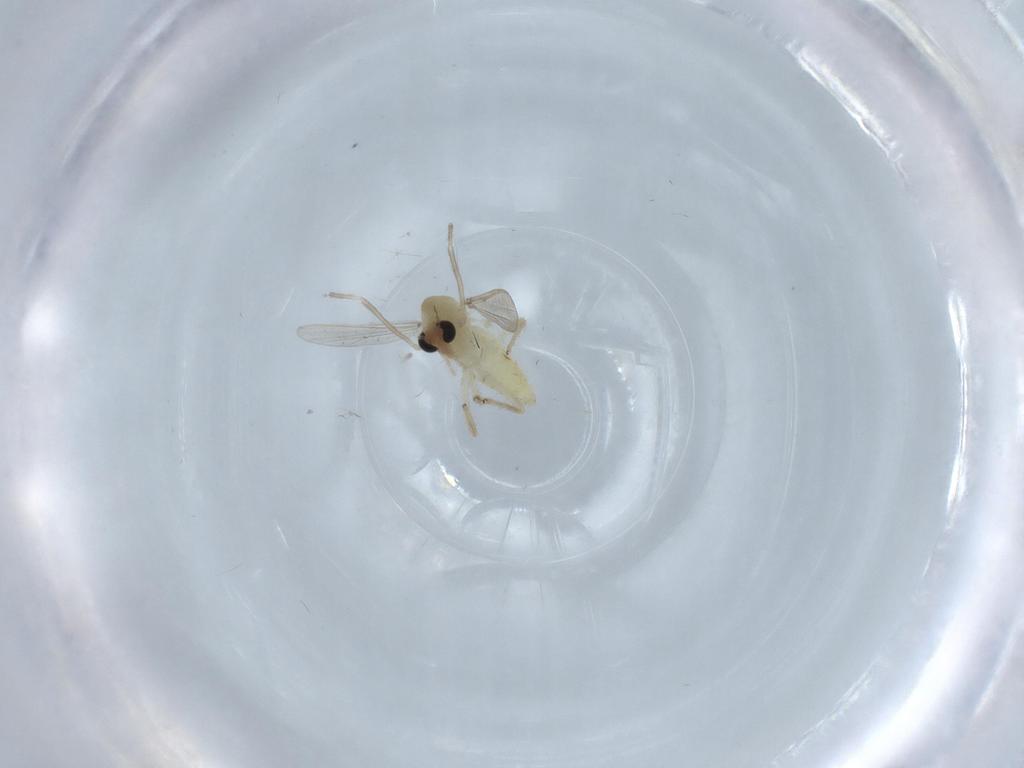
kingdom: Animalia
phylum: Arthropoda
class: Insecta
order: Diptera
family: Chironomidae
